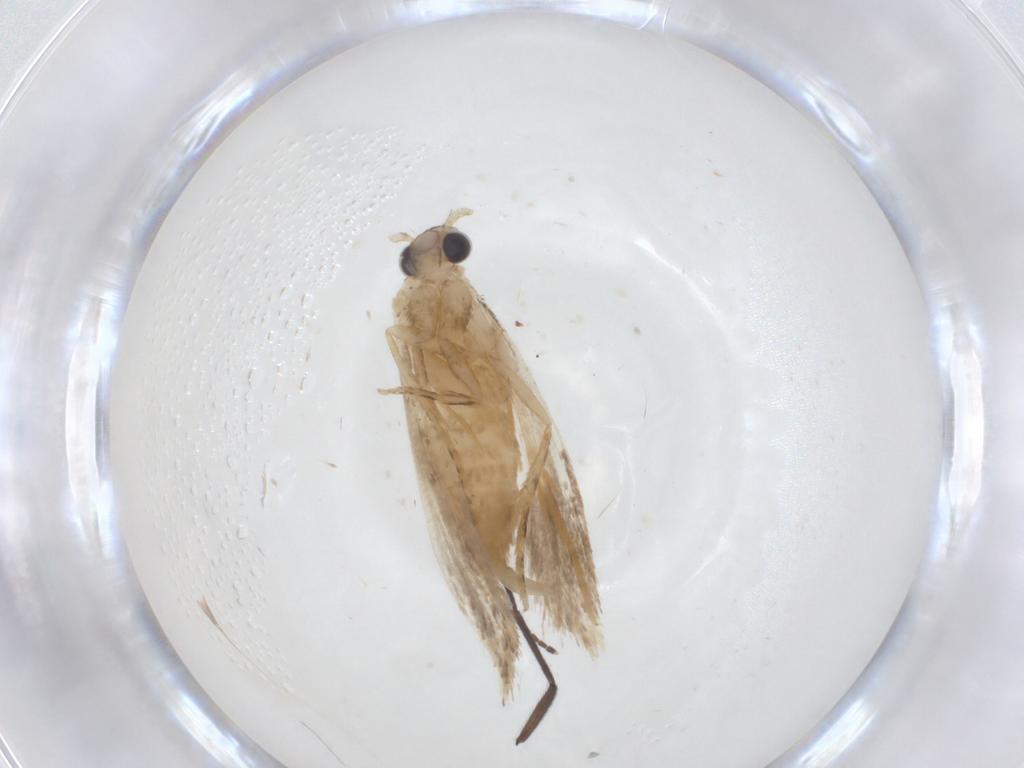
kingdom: Animalia
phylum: Arthropoda
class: Insecta
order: Lepidoptera
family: Tineidae
